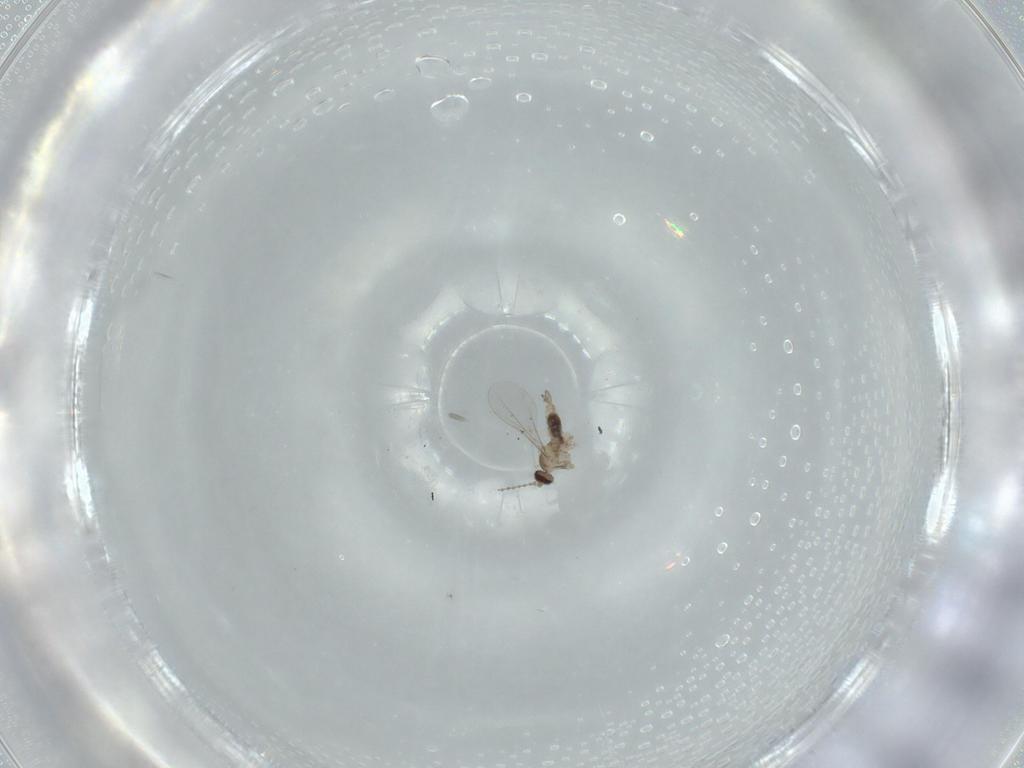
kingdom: Animalia
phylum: Arthropoda
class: Insecta
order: Diptera
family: Cecidomyiidae
